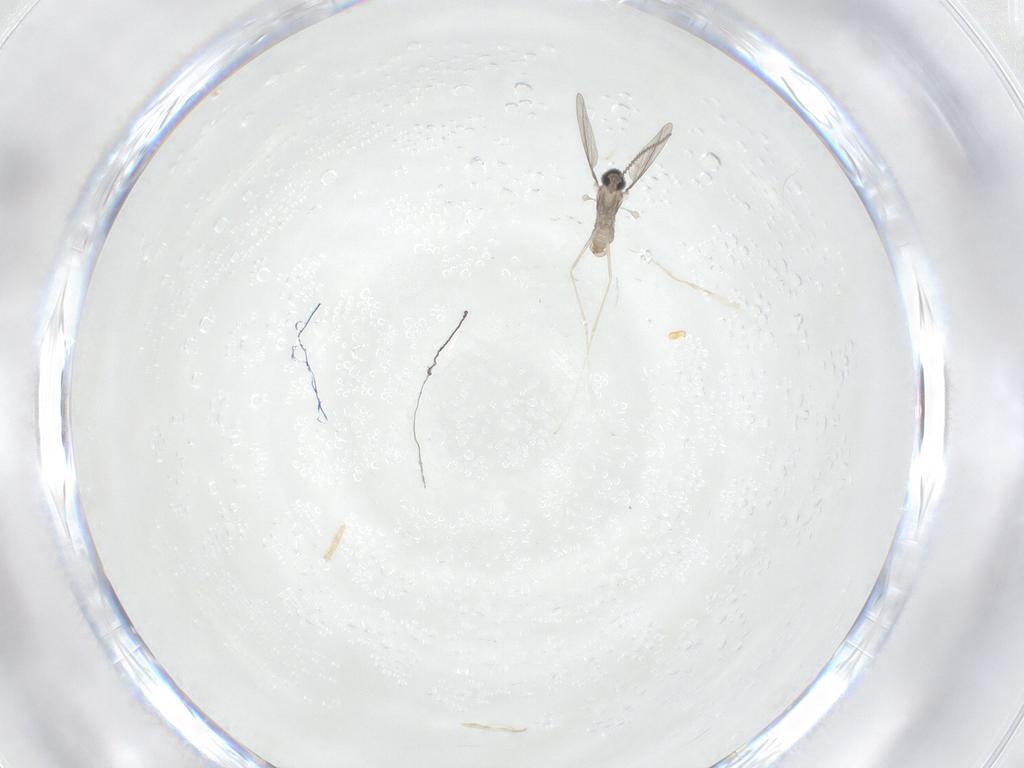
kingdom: Animalia
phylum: Arthropoda
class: Insecta
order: Diptera
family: Cecidomyiidae
